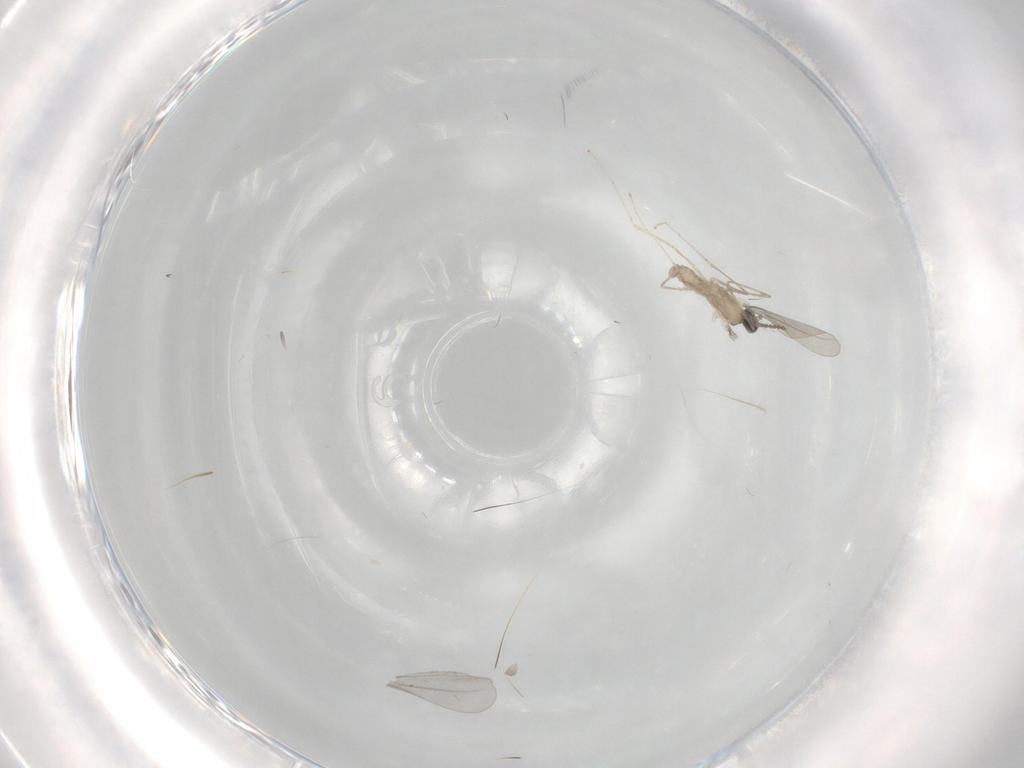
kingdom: Animalia
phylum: Arthropoda
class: Insecta
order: Diptera
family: Cecidomyiidae
